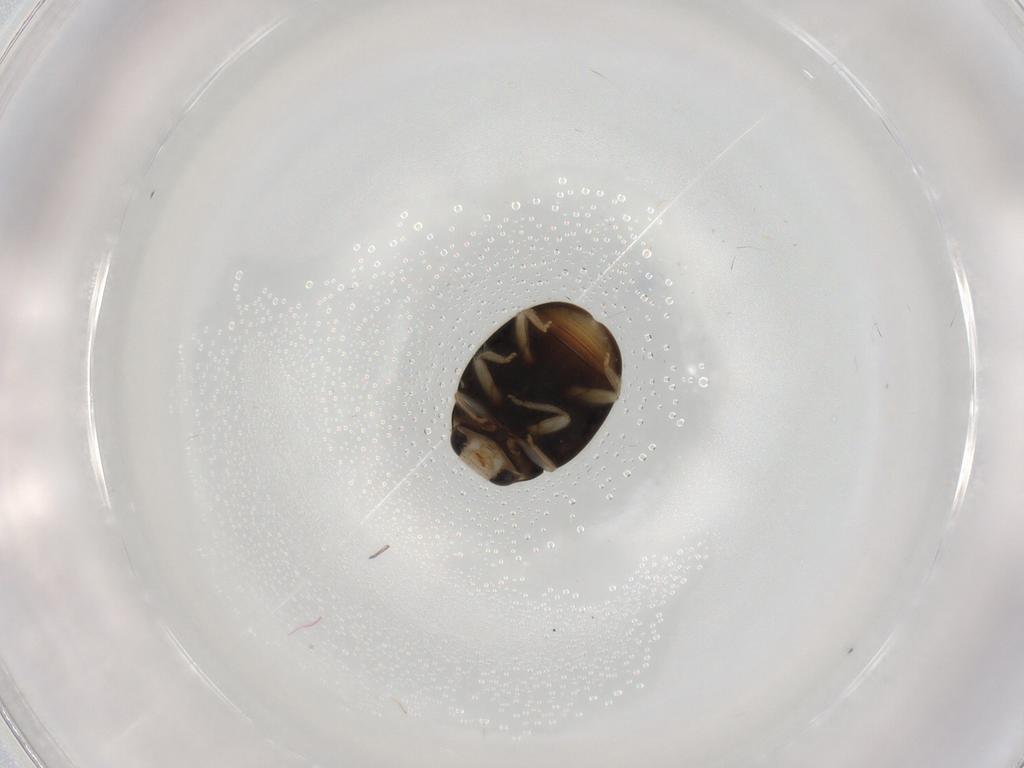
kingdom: Animalia
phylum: Arthropoda
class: Insecta
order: Coleoptera
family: Lampyridae
